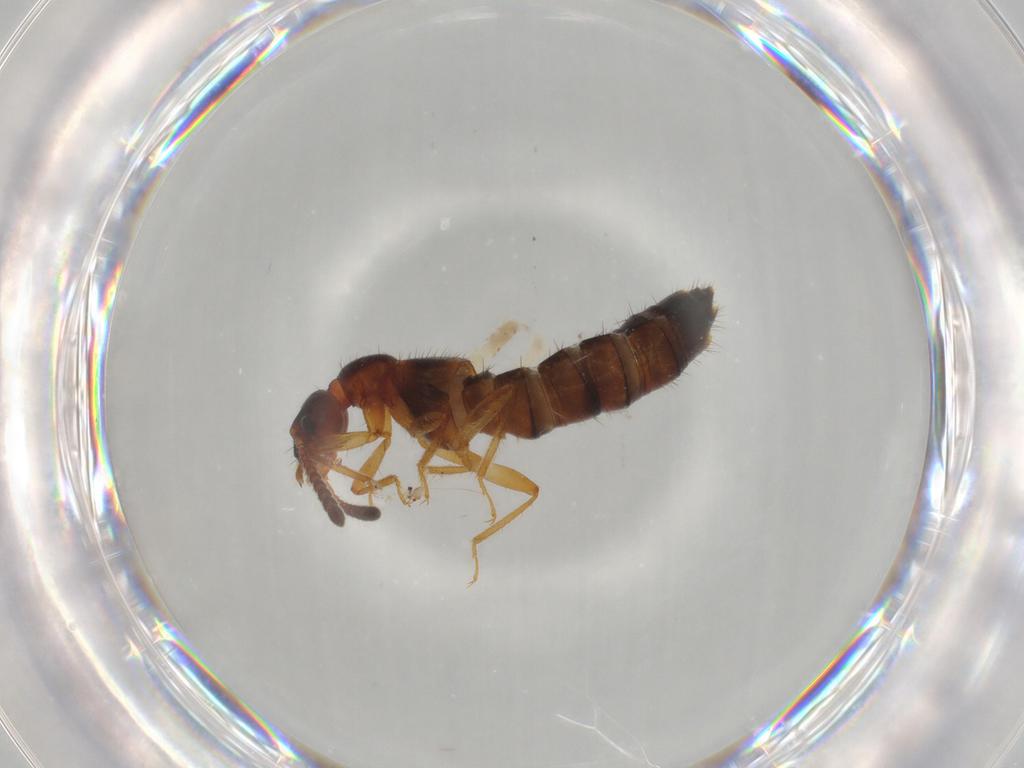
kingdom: Animalia
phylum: Arthropoda
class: Insecta
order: Coleoptera
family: Staphylinidae
